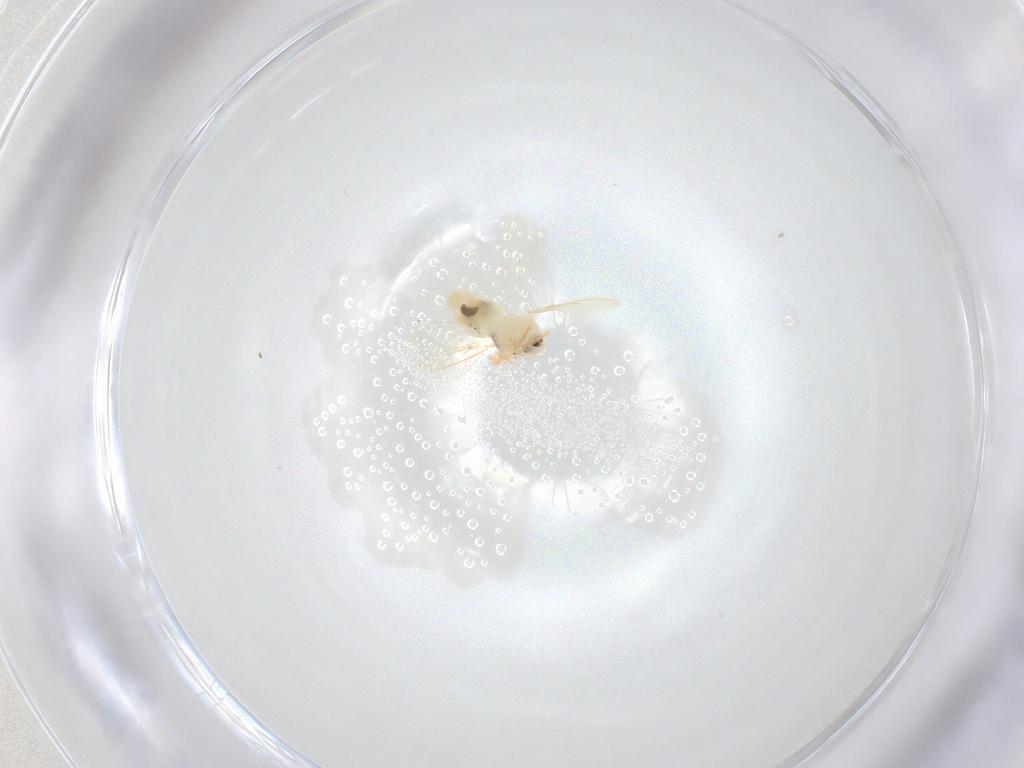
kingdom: Animalia
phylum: Arthropoda
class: Insecta
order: Hemiptera
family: Aleyrodidae
